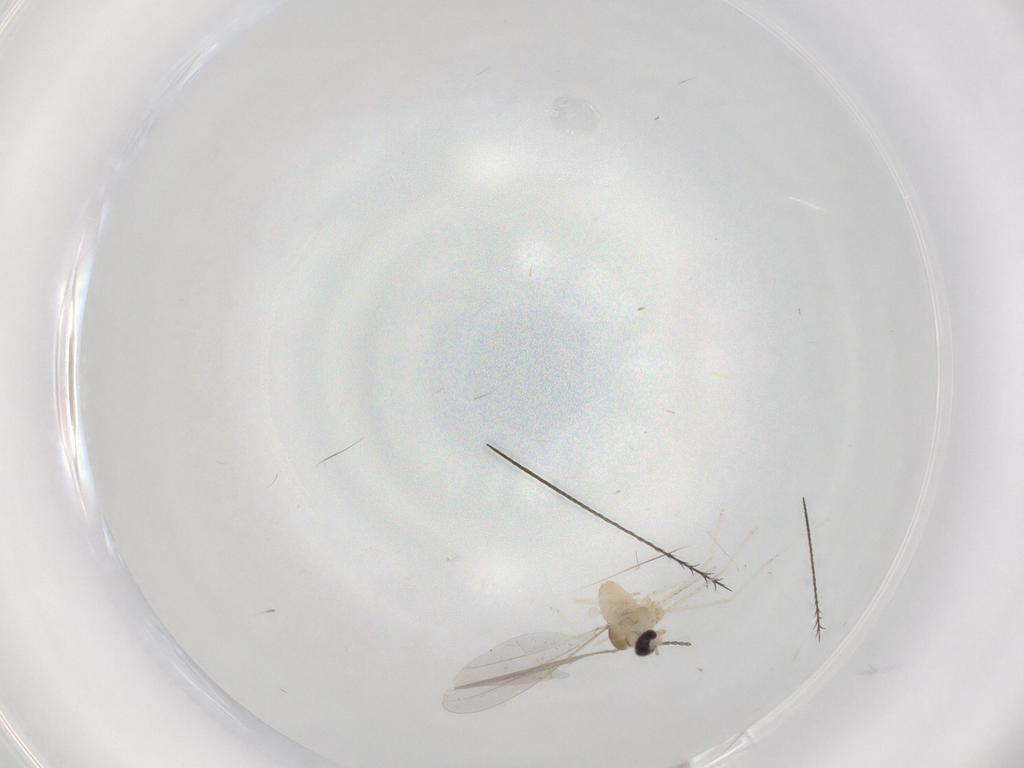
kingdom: Animalia
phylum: Arthropoda
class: Insecta
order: Diptera
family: Cecidomyiidae
